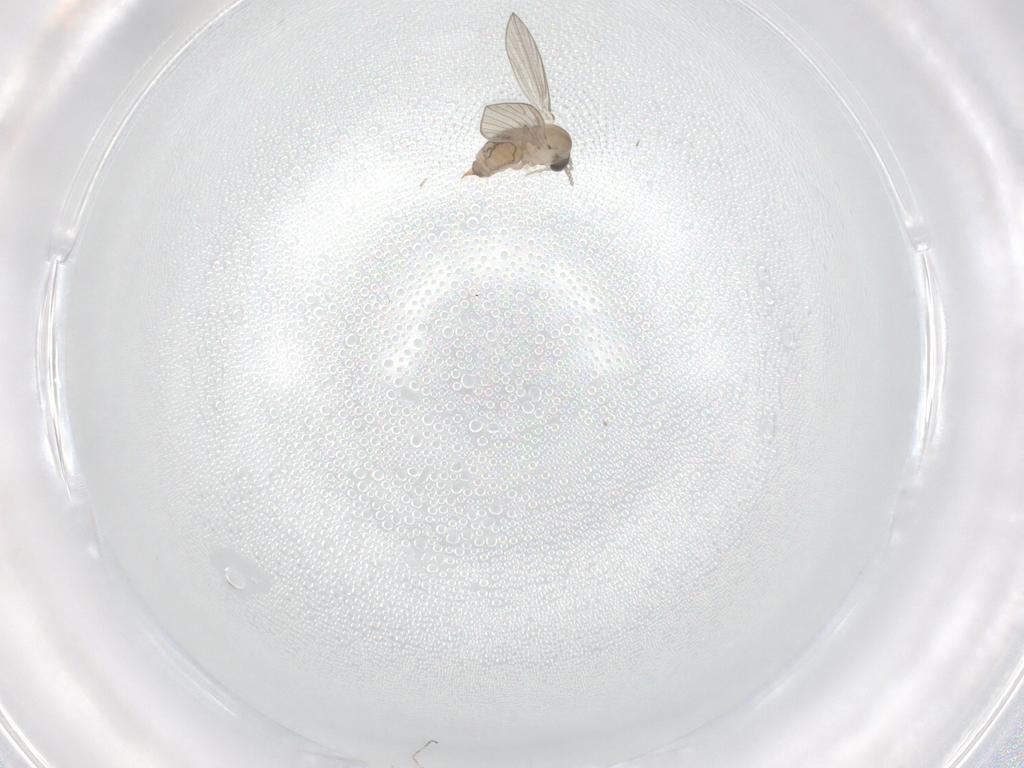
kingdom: Animalia
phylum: Arthropoda
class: Insecta
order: Diptera
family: Psychodidae
